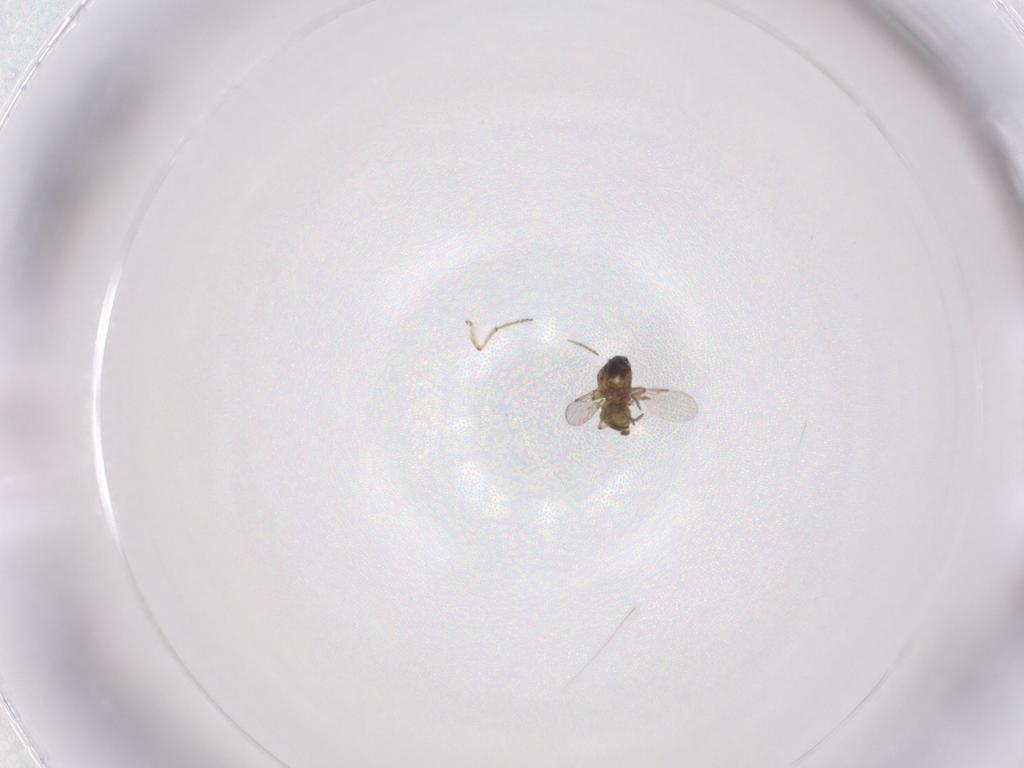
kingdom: Animalia
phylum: Arthropoda
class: Insecta
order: Diptera
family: Ceratopogonidae
